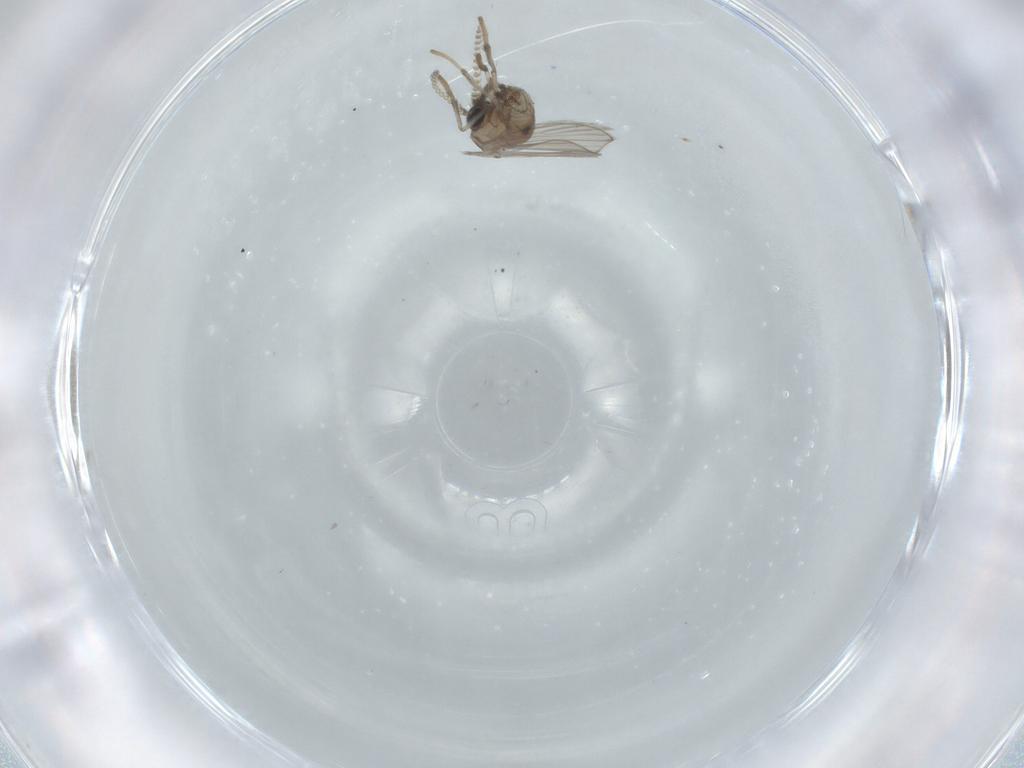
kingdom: Animalia
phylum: Arthropoda
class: Insecta
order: Diptera
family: Psychodidae
